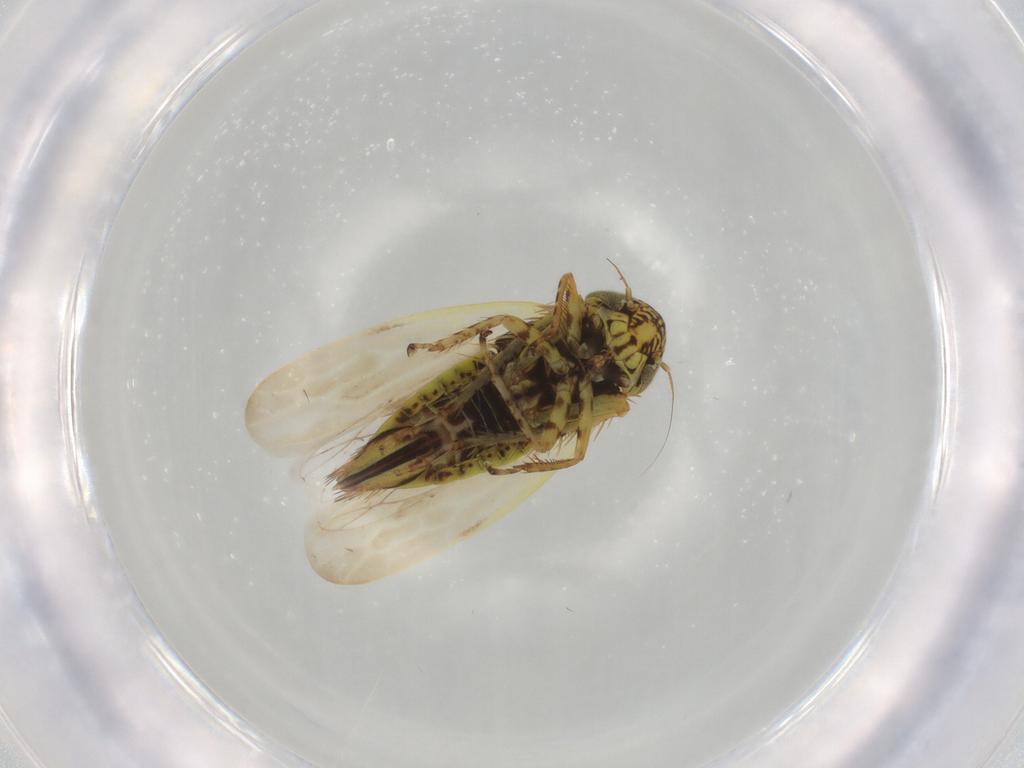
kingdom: Animalia
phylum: Arthropoda
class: Insecta
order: Hemiptera
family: Cicadellidae
